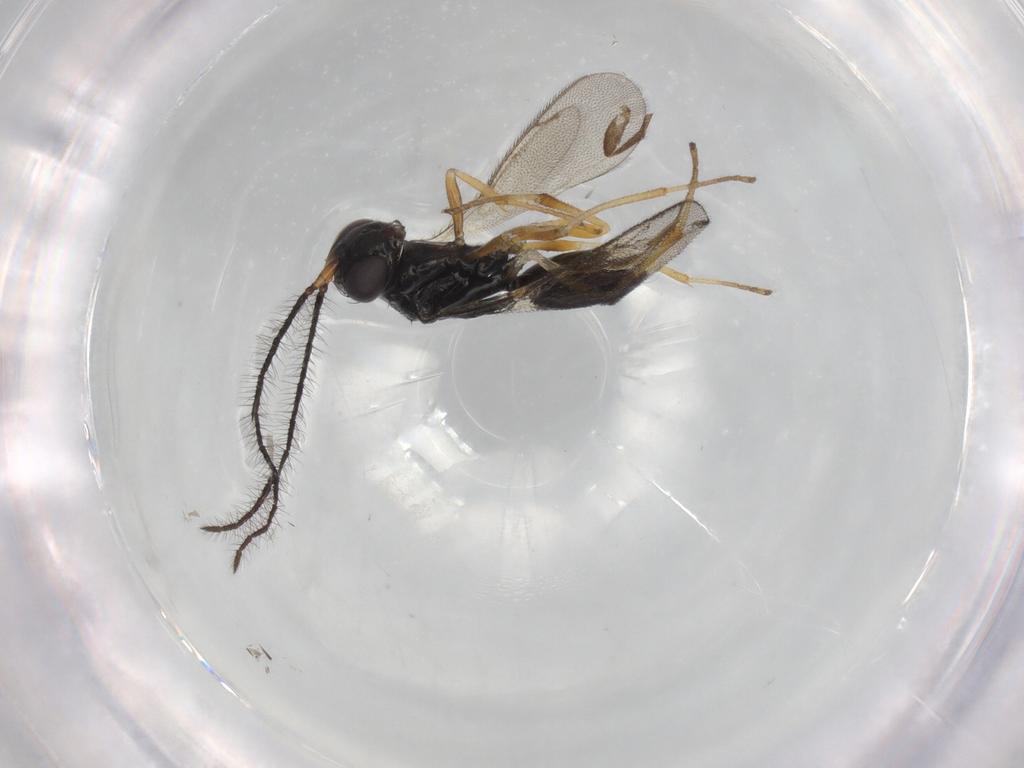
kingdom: Animalia
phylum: Arthropoda
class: Insecta
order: Hymenoptera
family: Diparidae
